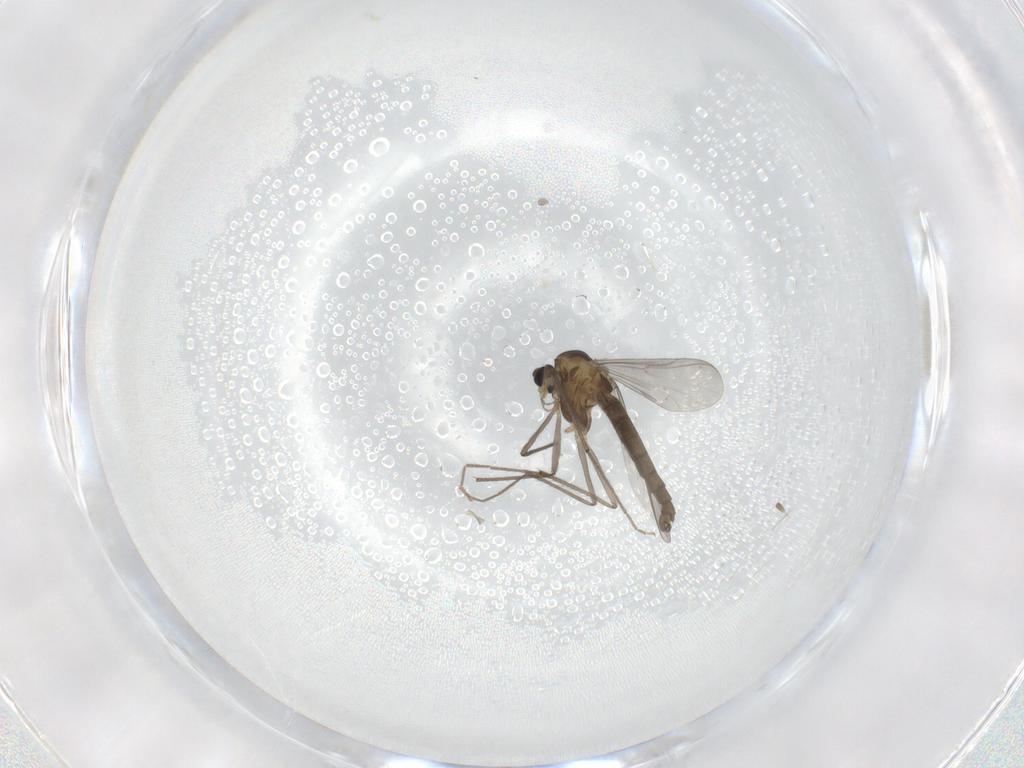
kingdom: Animalia
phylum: Arthropoda
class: Insecta
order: Diptera
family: Chironomidae
